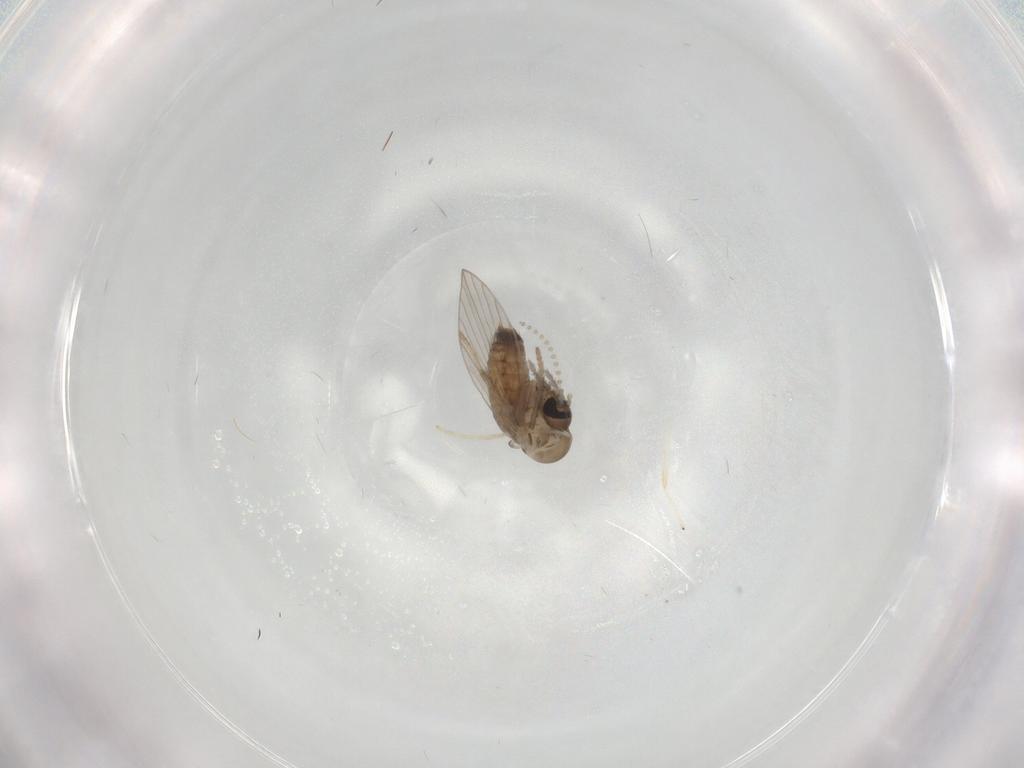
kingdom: Animalia
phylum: Arthropoda
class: Insecta
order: Diptera
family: Psychodidae
